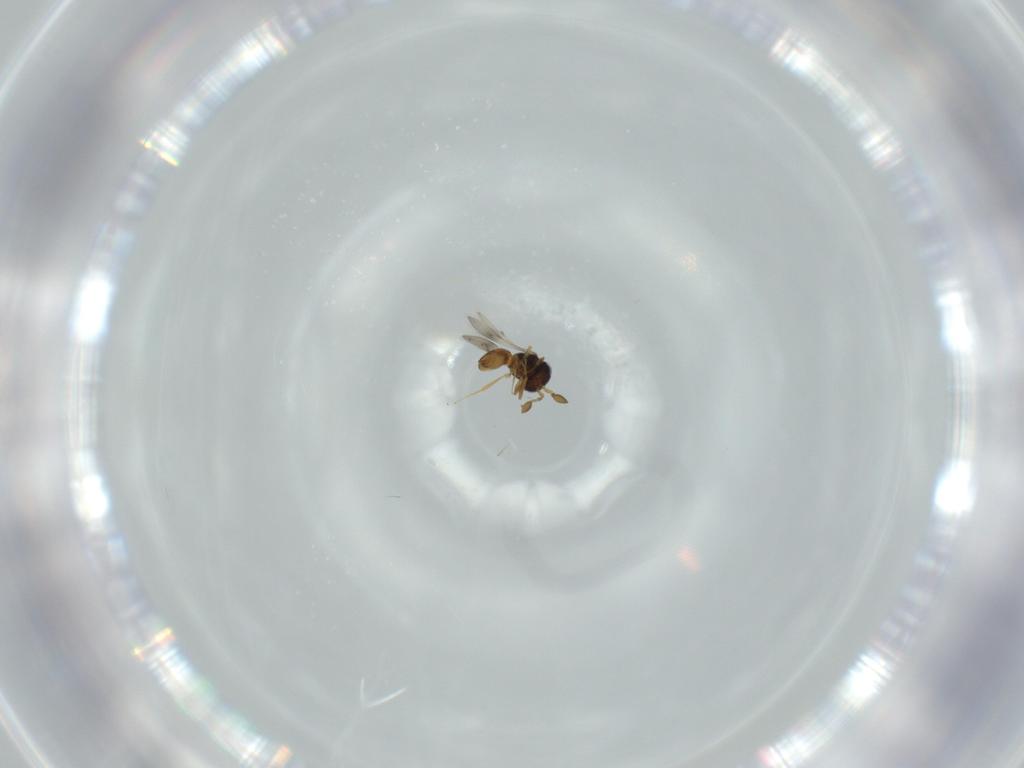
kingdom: Animalia
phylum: Arthropoda
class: Insecta
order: Hymenoptera
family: Scelionidae
